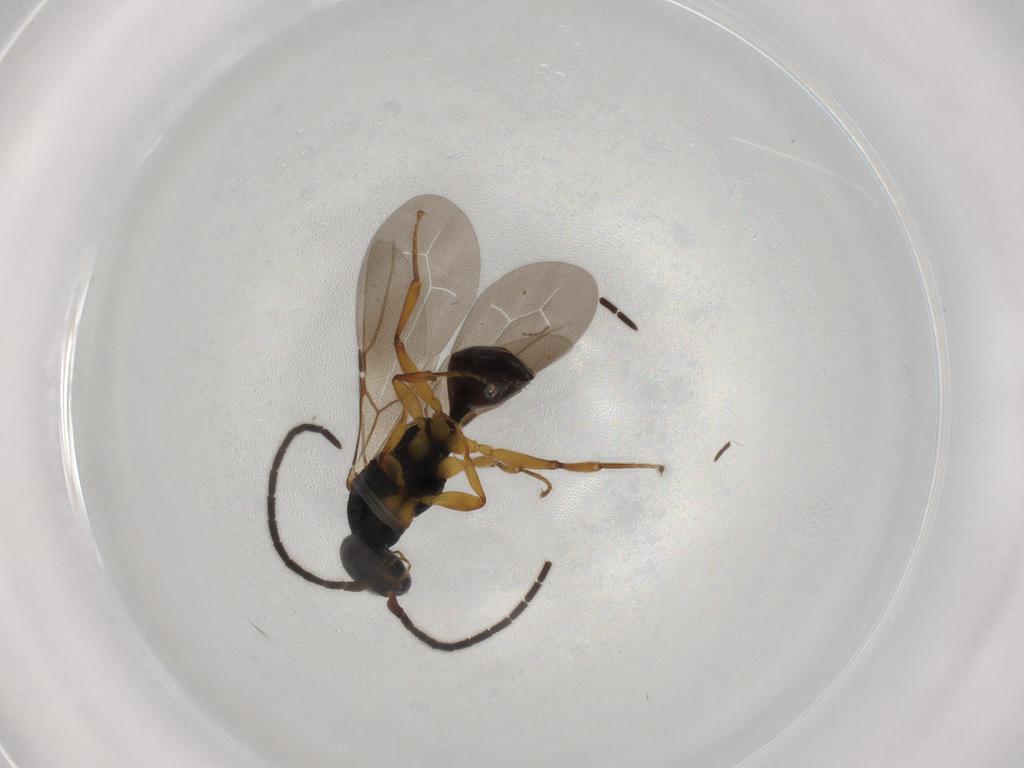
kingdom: Animalia
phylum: Arthropoda
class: Insecta
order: Hymenoptera
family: Bethylidae
